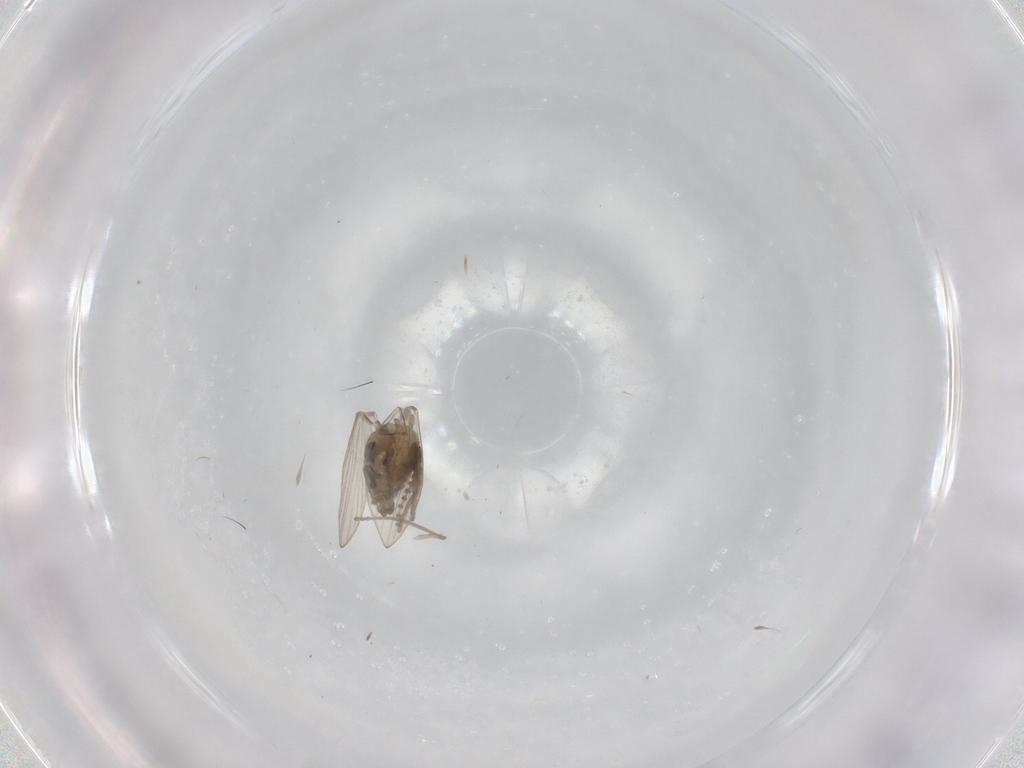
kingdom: Animalia
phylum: Arthropoda
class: Insecta
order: Diptera
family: Psychodidae
